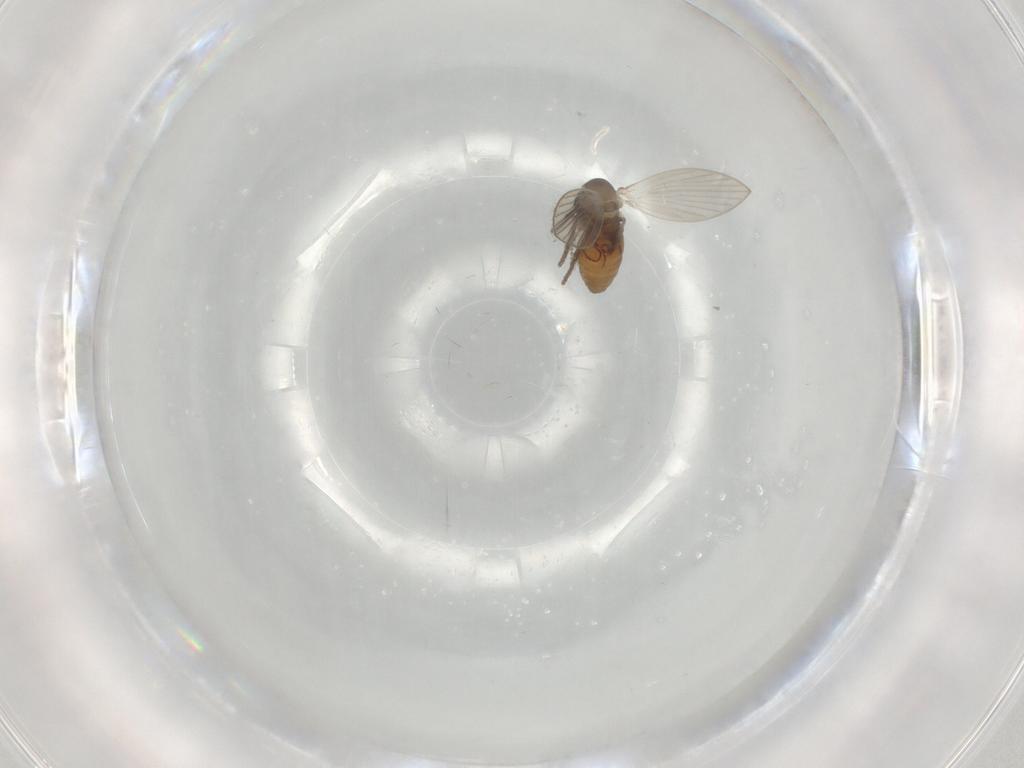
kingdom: Animalia
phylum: Arthropoda
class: Insecta
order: Diptera
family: Psychodidae
